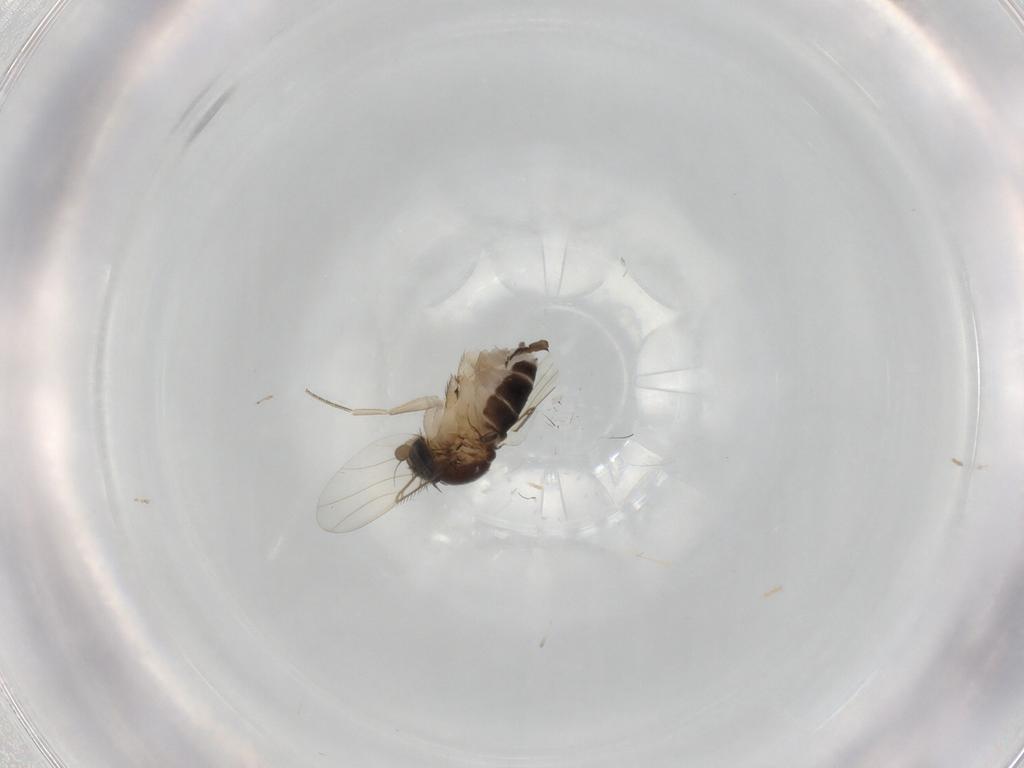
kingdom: Animalia
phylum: Arthropoda
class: Insecta
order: Diptera
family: Phoridae
